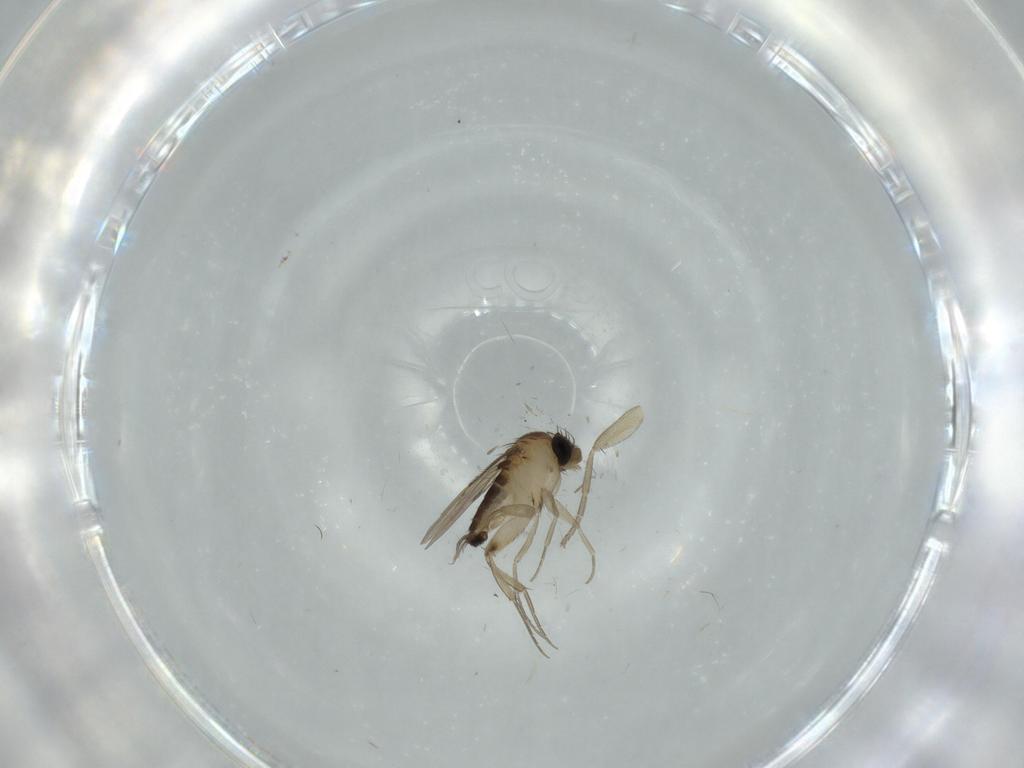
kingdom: Animalia
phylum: Arthropoda
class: Insecta
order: Diptera
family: Phoridae
